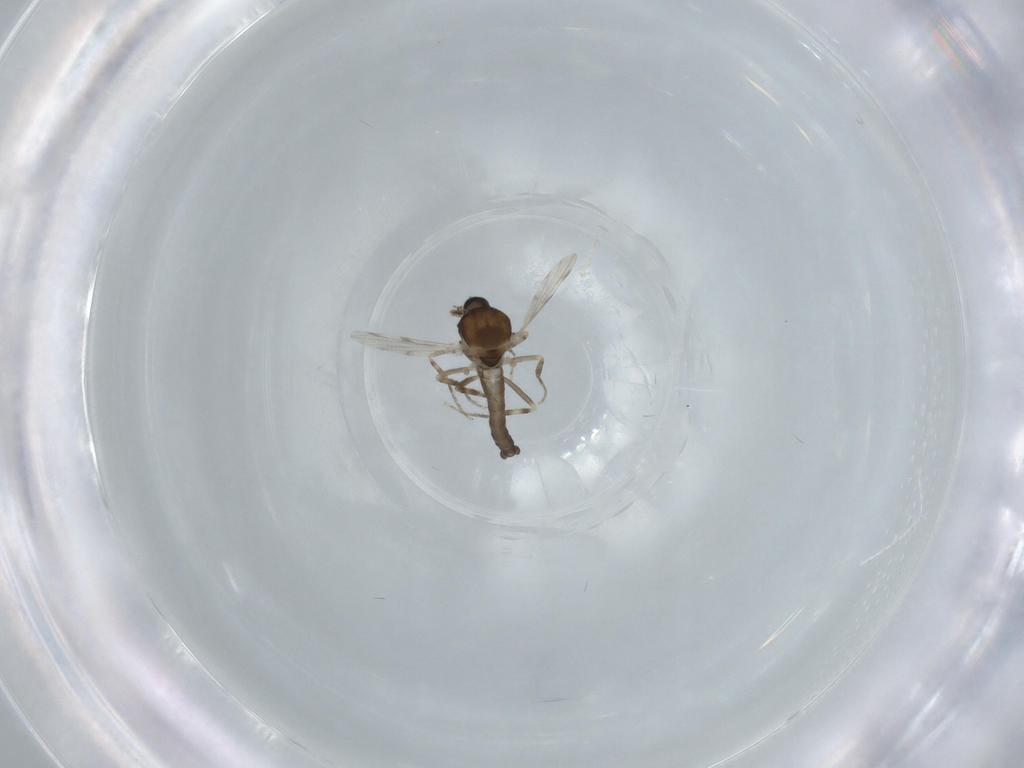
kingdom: Animalia
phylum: Arthropoda
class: Insecta
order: Diptera
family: Ceratopogonidae
